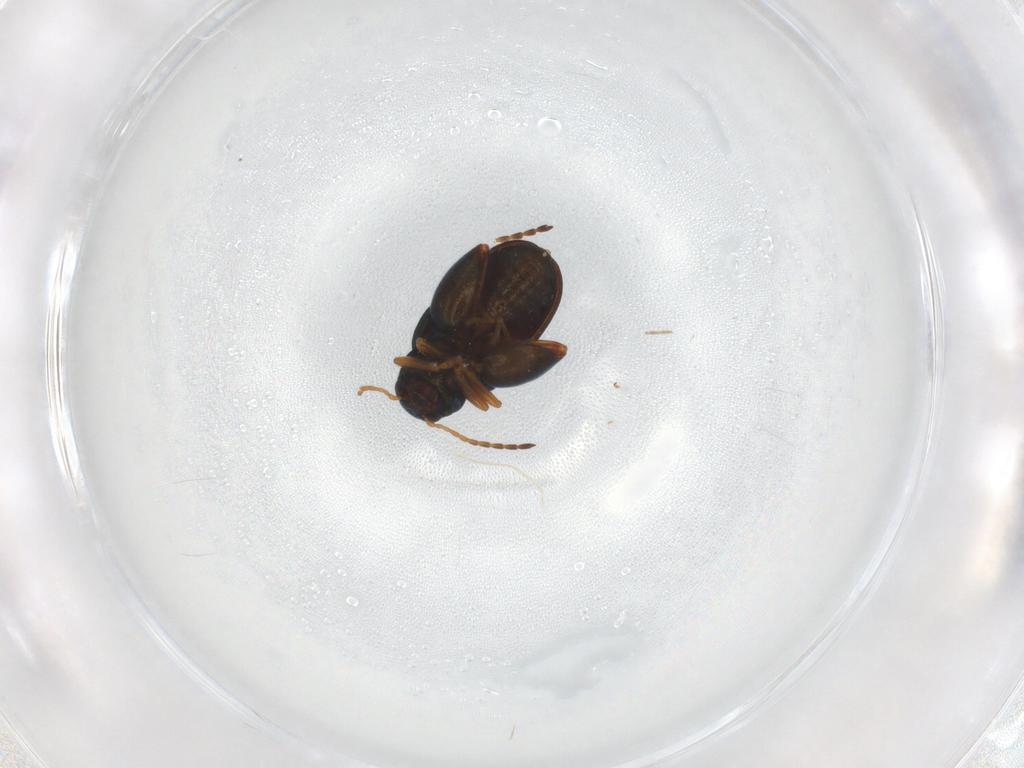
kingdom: Animalia
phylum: Arthropoda
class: Insecta
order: Coleoptera
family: Chrysomelidae
